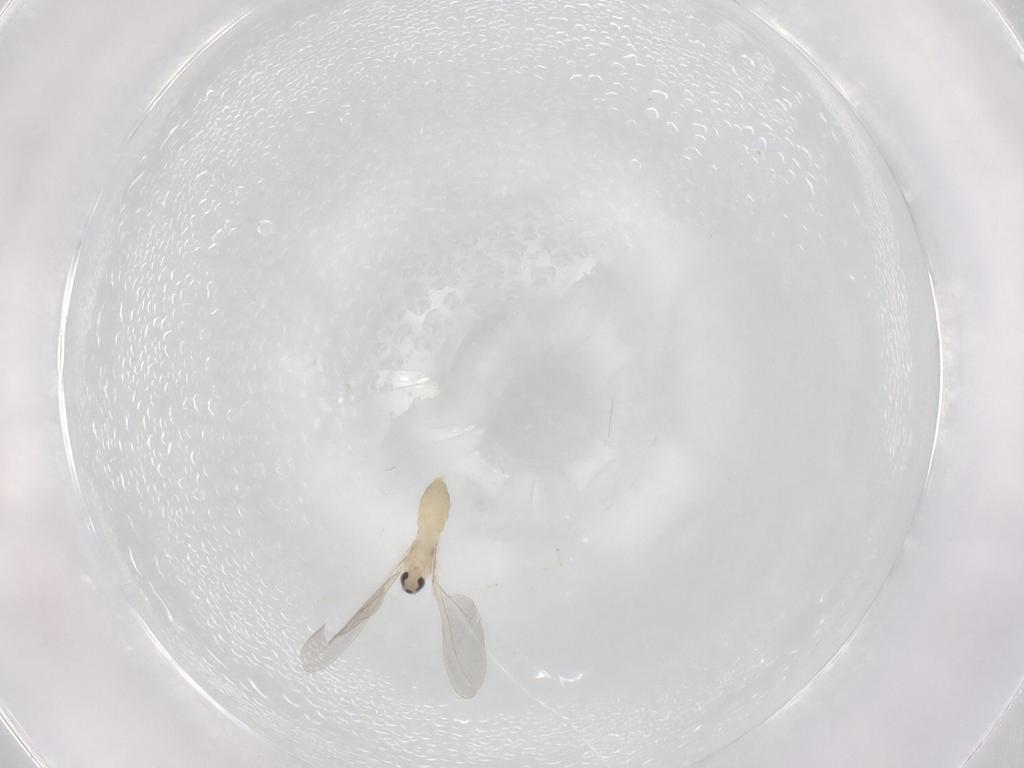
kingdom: Animalia
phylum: Arthropoda
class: Insecta
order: Diptera
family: Cecidomyiidae
